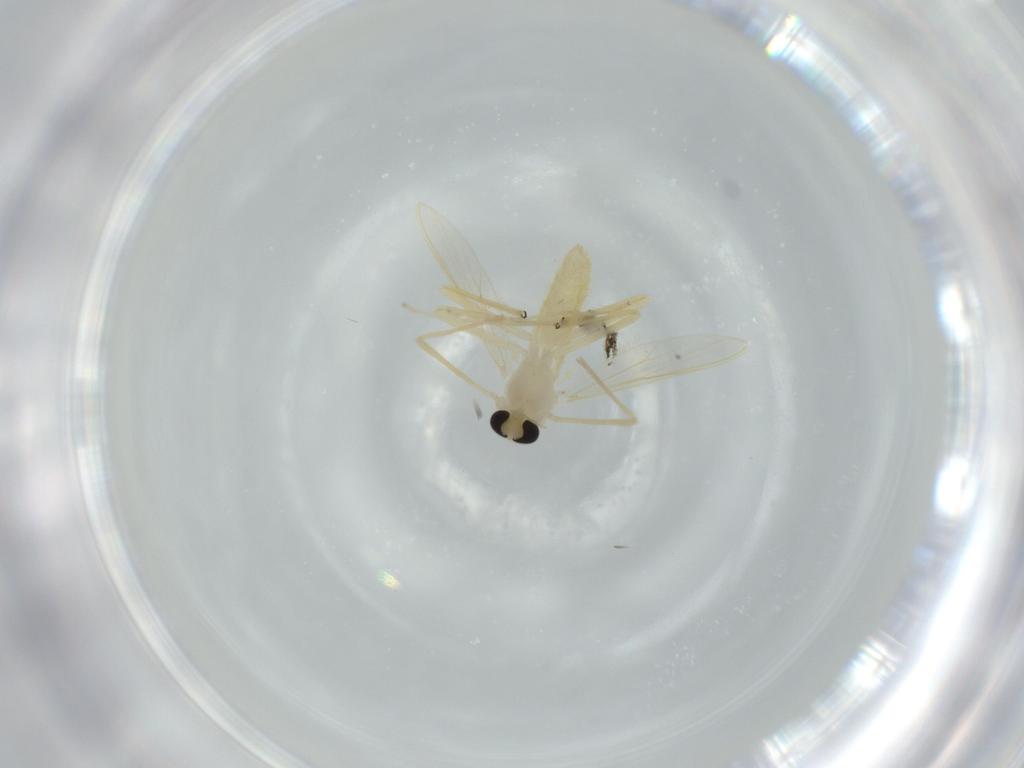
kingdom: Animalia
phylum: Arthropoda
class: Insecta
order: Diptera
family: Chironomidae
